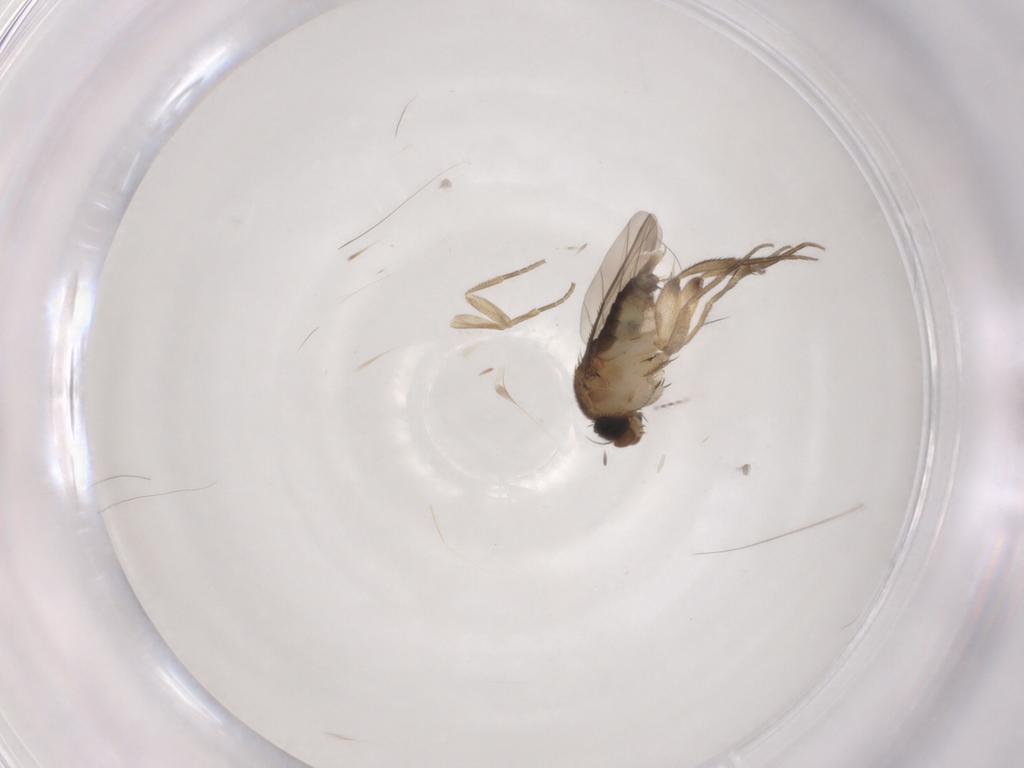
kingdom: Animalia
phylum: Arthropoda
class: Insecta
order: Diptera
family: Phoridae
